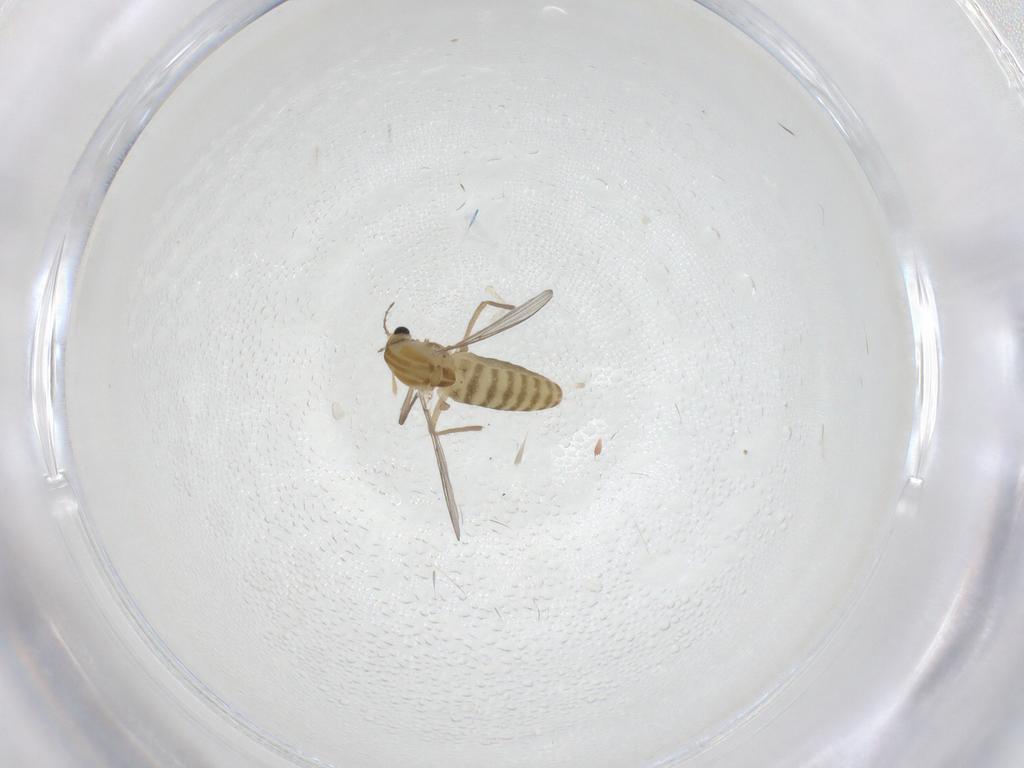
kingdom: Animalia
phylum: Arthropoda
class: Insecta
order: Diptera
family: Chironomidae
